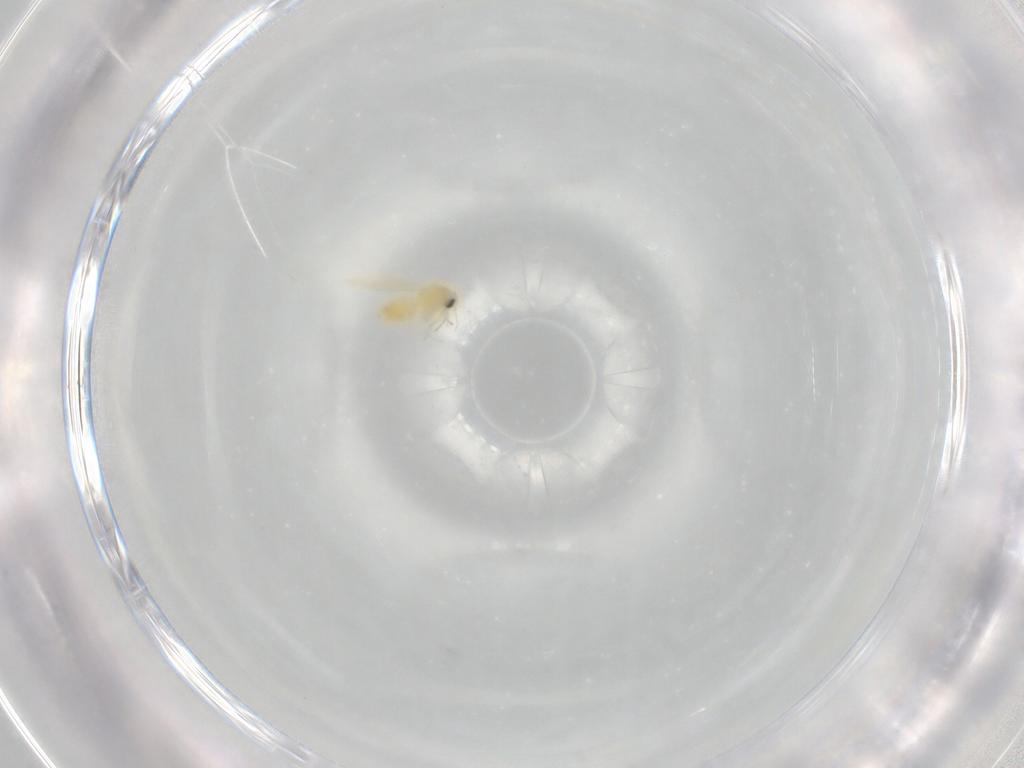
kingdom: Animalia
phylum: Arthropoda
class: Insecta
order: Hemiptera
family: Aleyrodidae
